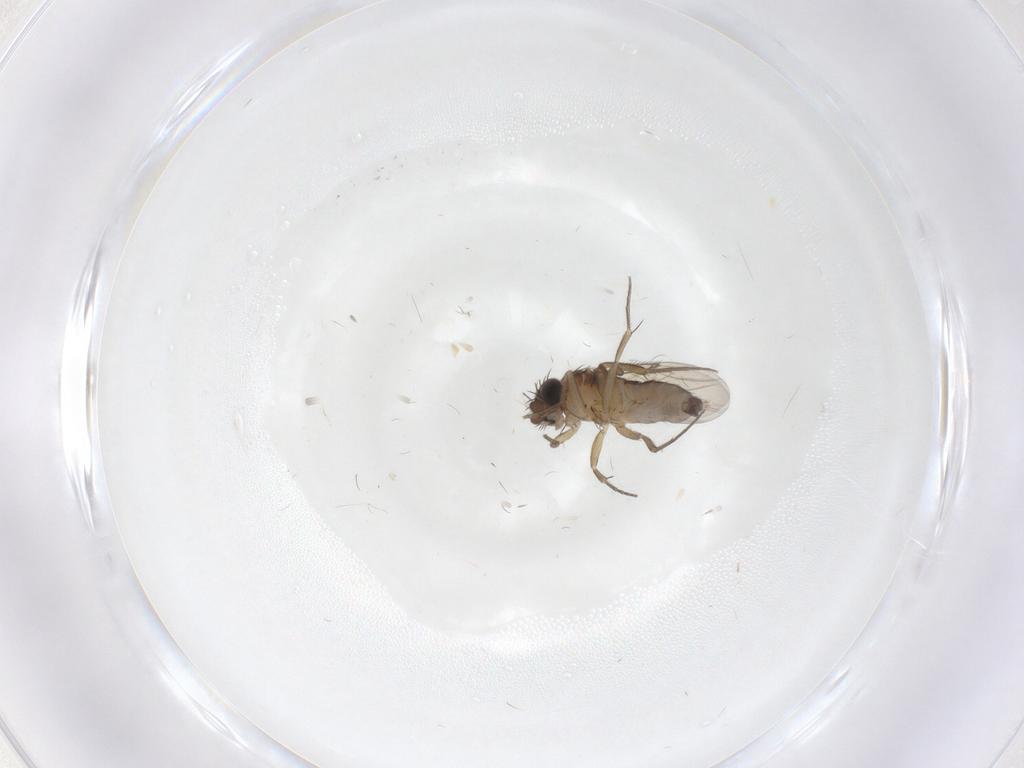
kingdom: Animalia
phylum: Arthropoda
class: Insecta
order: Diptera
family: Phoridae
